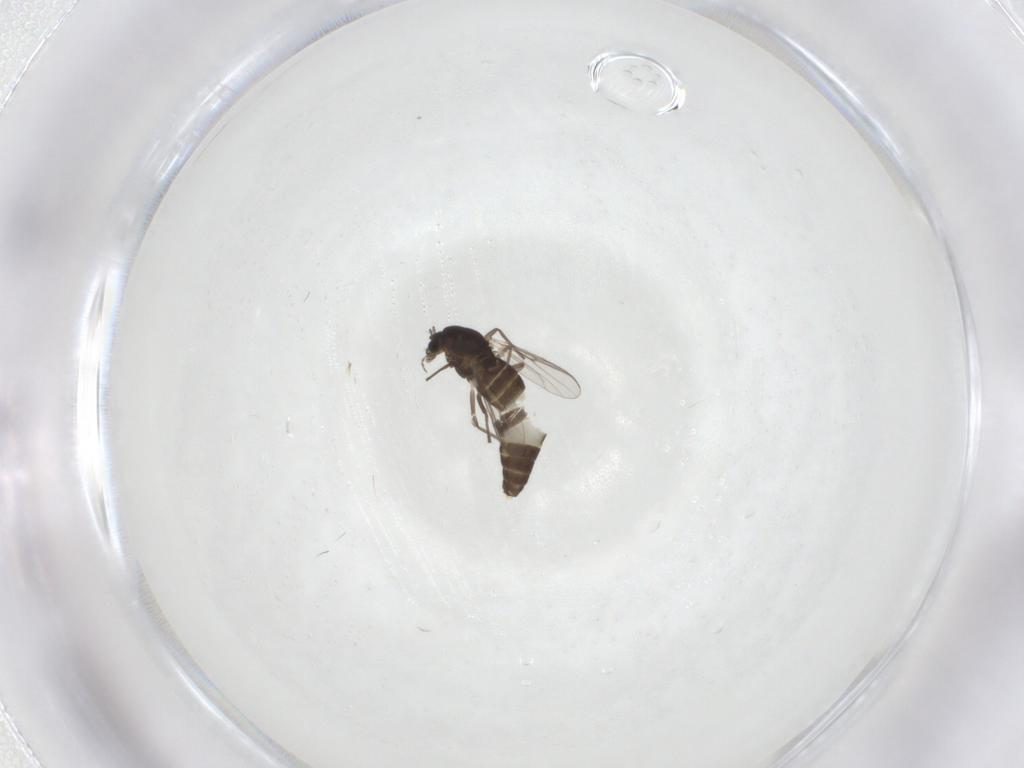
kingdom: Animalia
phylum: Arthropoda
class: Insecta
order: Diptera
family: Chironomidae
